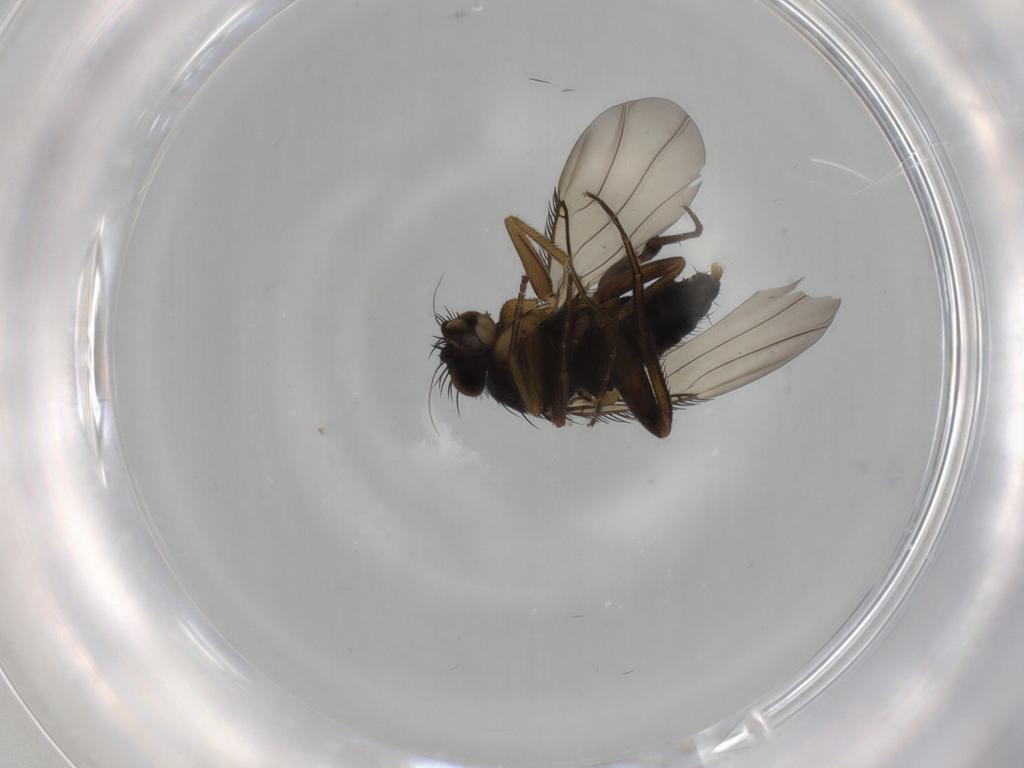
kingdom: Animalia
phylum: Arthropoda
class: Insecta
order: Diptera
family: Phoridae
